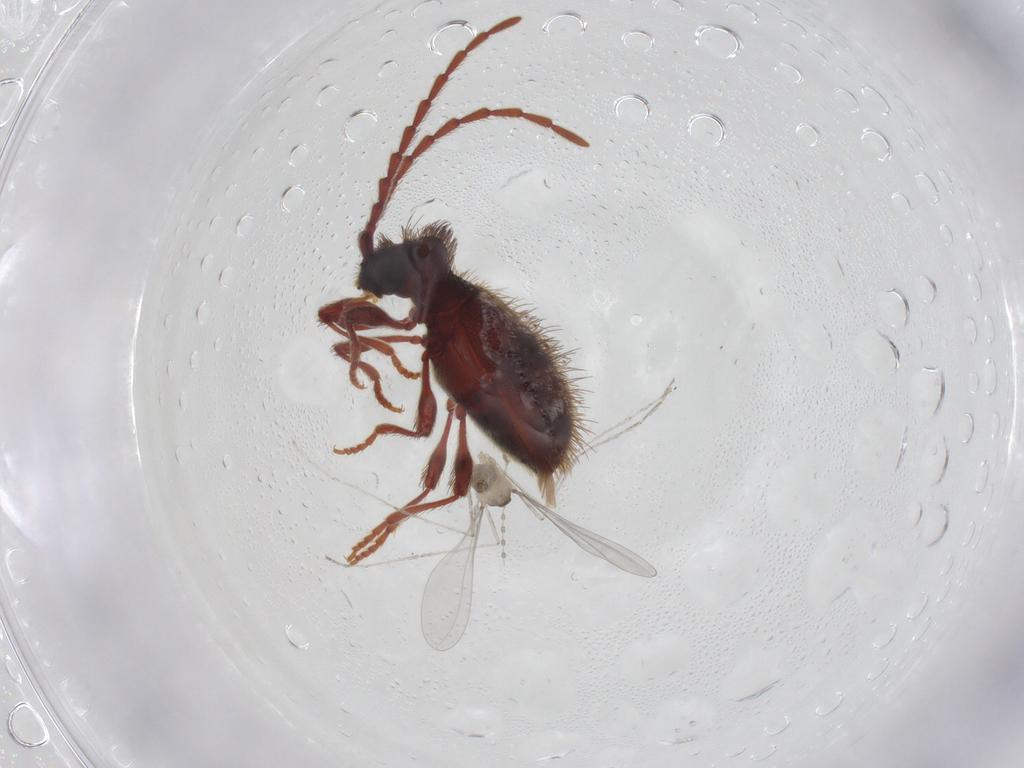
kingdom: Animalia
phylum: Arthropoda
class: Insecta
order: Diptera
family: Cecidomyiidae
